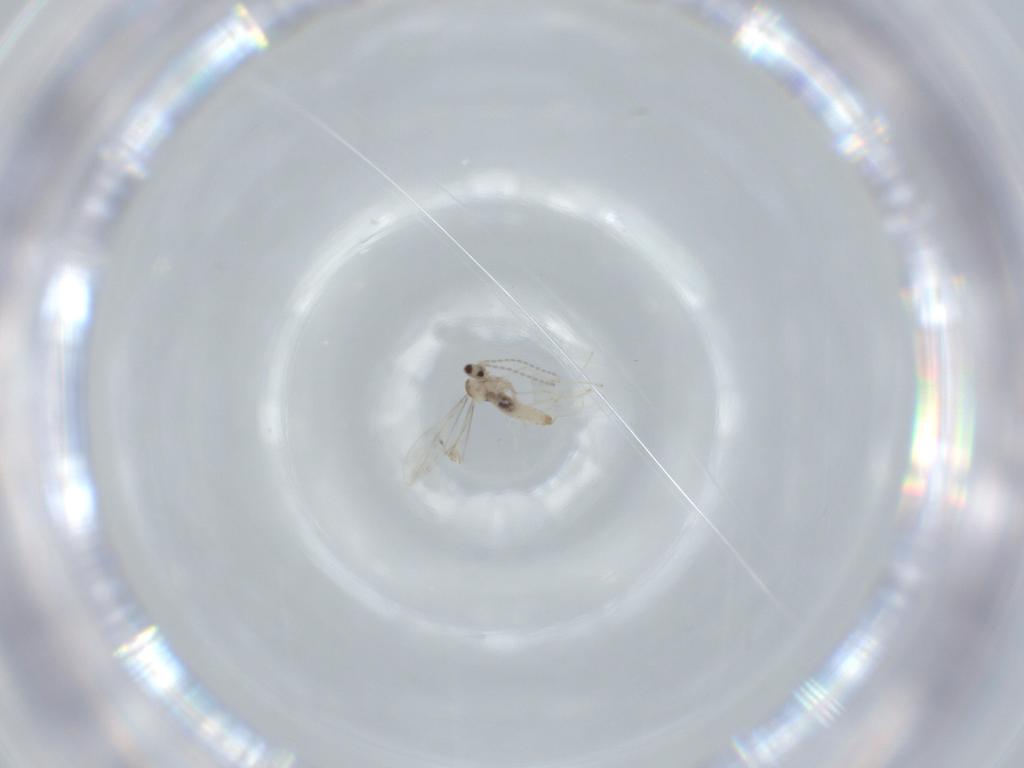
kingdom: Animalia
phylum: Arthropoda
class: Insecta
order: Diptera
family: Cecidomyiidae
